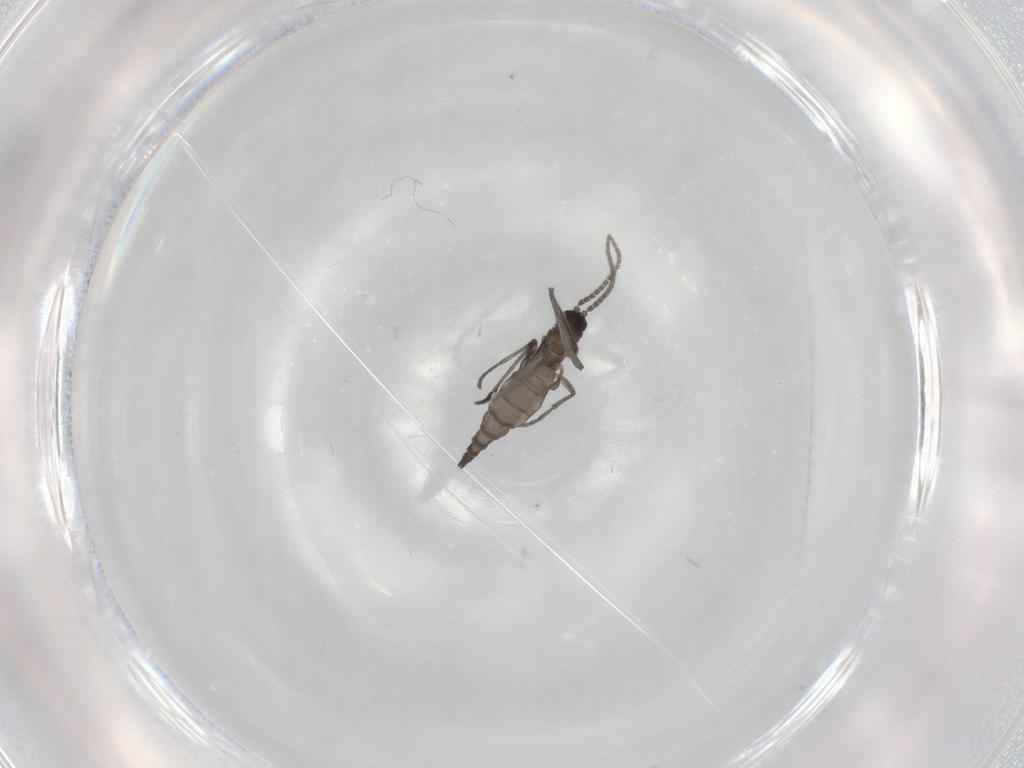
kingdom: Animalia
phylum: Arthropoda
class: Insecta
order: Diptera
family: Sciaridae
